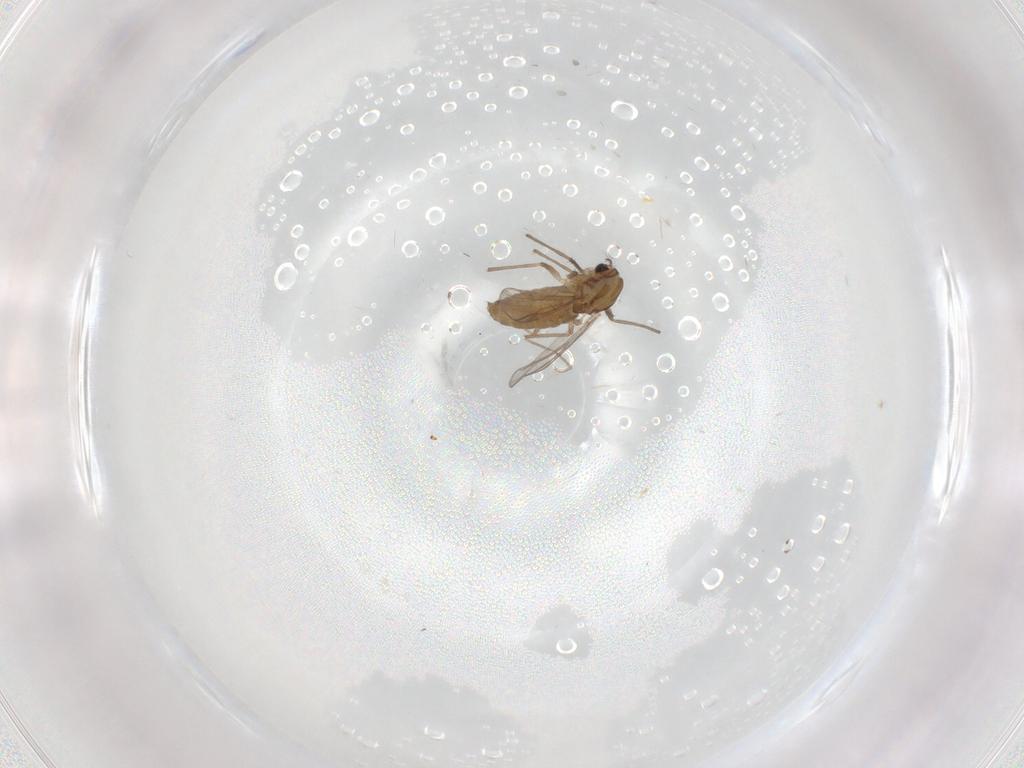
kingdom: Animalia
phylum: Arthropoda
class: Insecta
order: Diptera
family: Chironomidae
